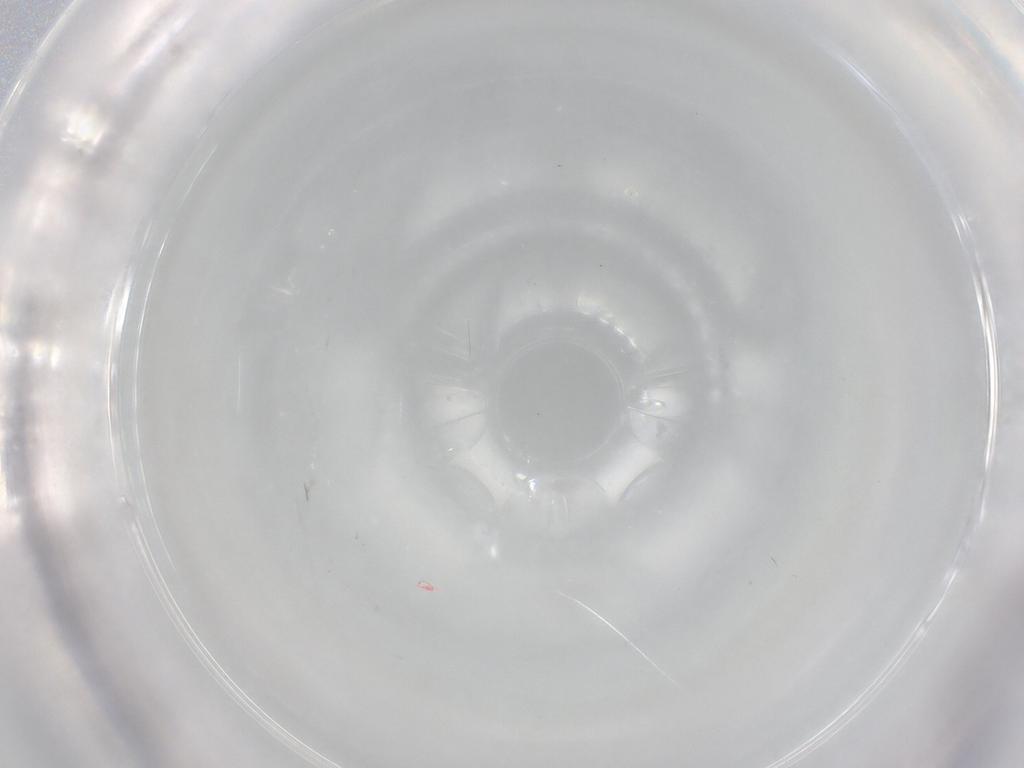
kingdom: Animalia
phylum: Arthropoda
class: Insecta
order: Hemiptera
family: Aleyrodidae
